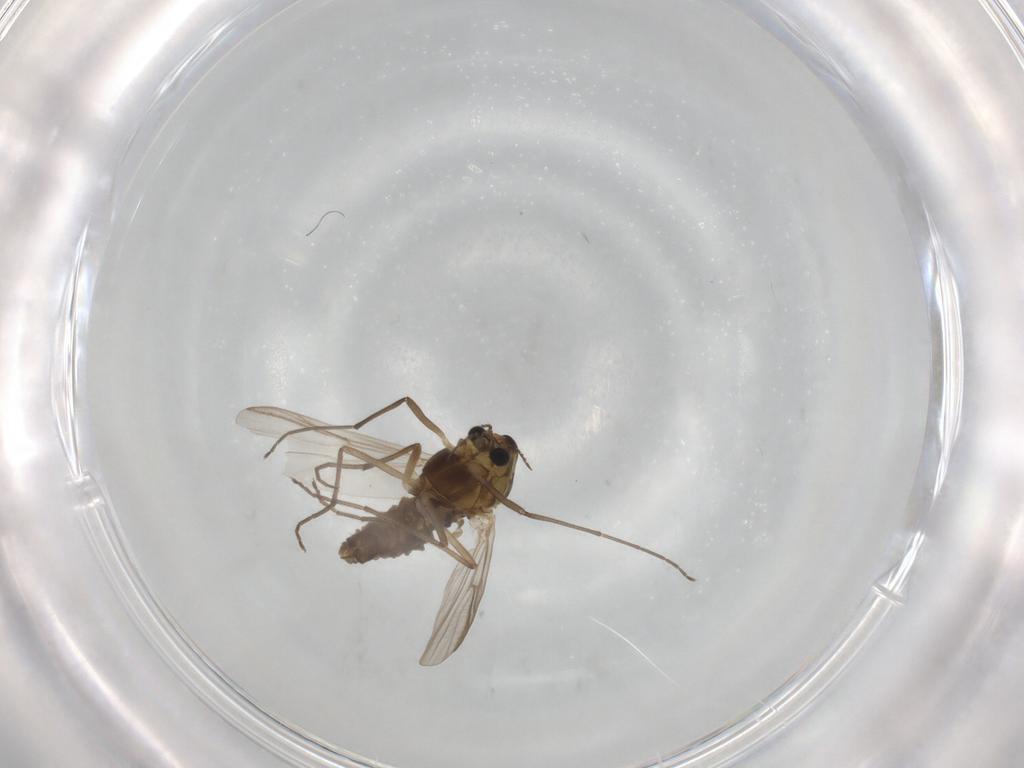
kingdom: Animalia
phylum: Arthropoda
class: Insecta
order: Diptera
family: Chironomidae
